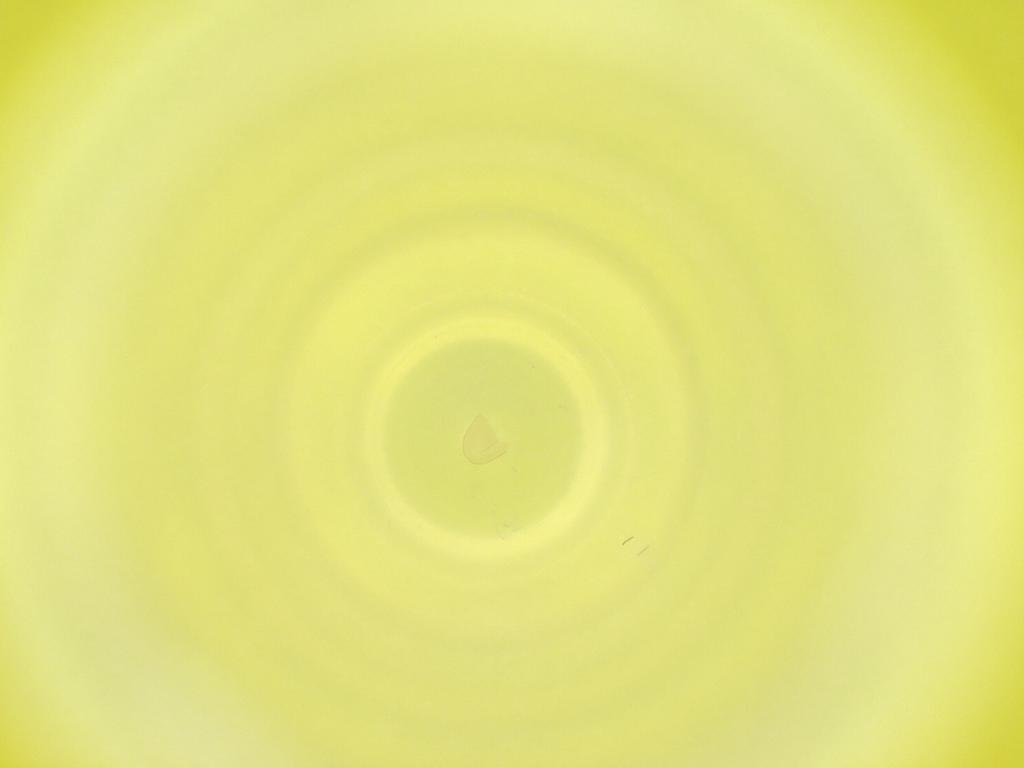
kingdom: Animalia
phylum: Arthropoda
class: Insecta
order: Diptera
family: Cecidomyiidae
